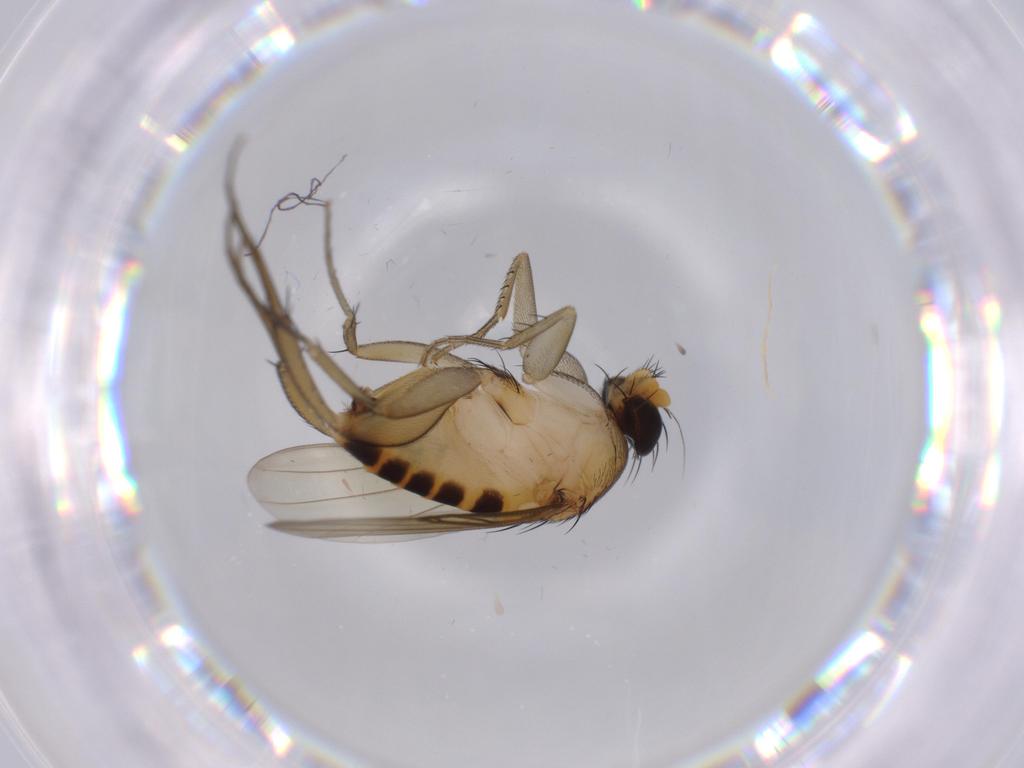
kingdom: Animalia
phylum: Arthropoda
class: Insecta
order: Diptera
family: Phoridae
